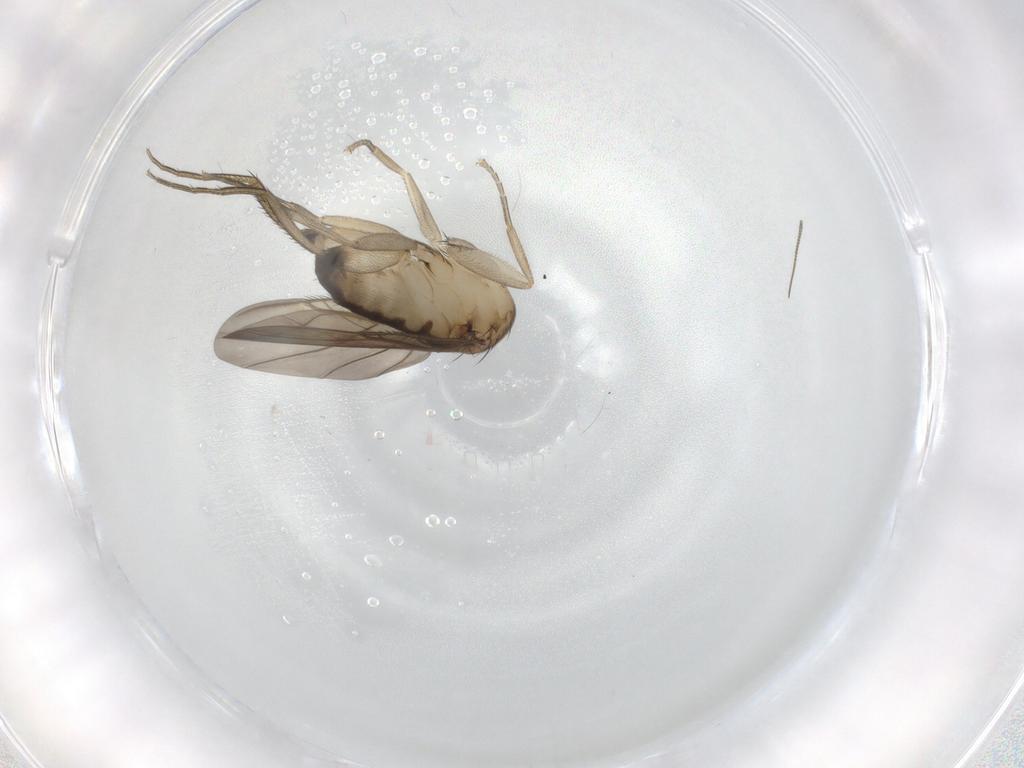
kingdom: Animalia
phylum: Arthropoda
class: Insecta
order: Diptera
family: Phoridae
